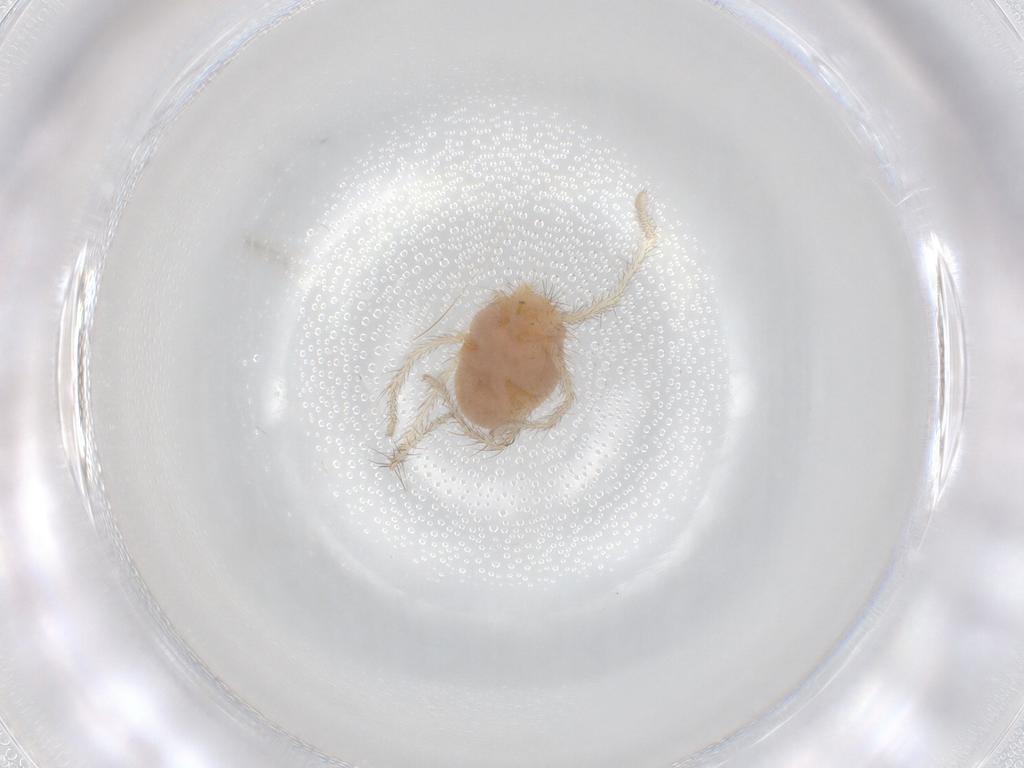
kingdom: Animalia
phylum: Arthropoda
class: Arachnida
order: Trombidiformes
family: Erythraeidae
